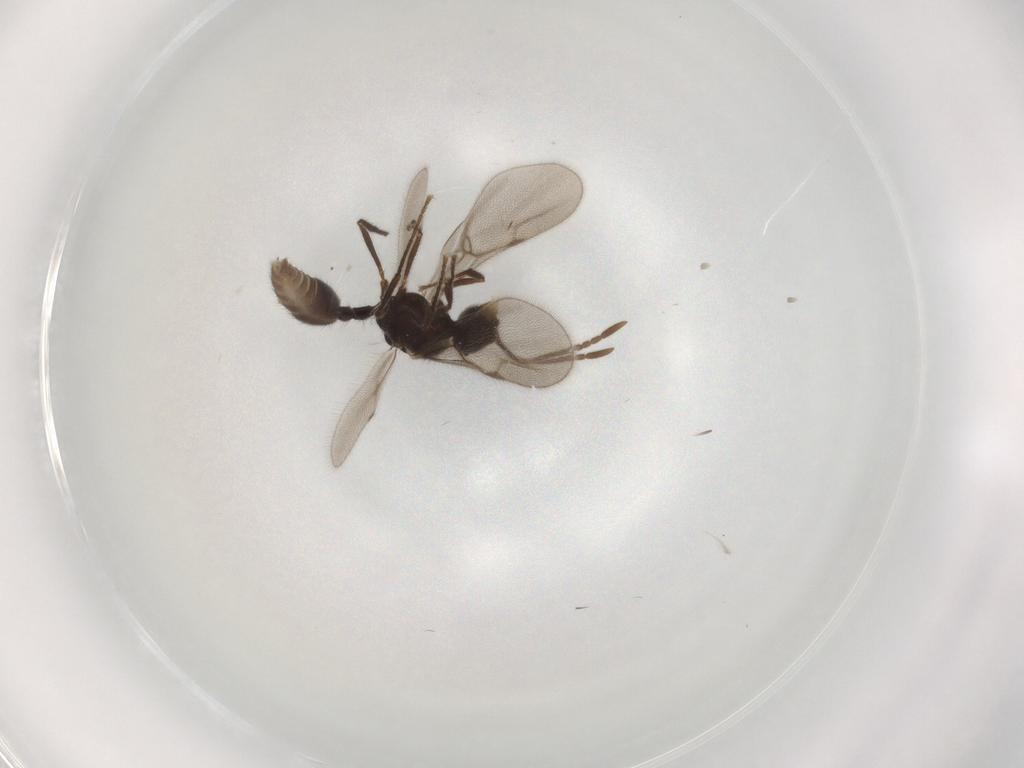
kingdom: Animalia
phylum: Arthropoda
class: Insecta
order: Hymenoptera
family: Formicidae
